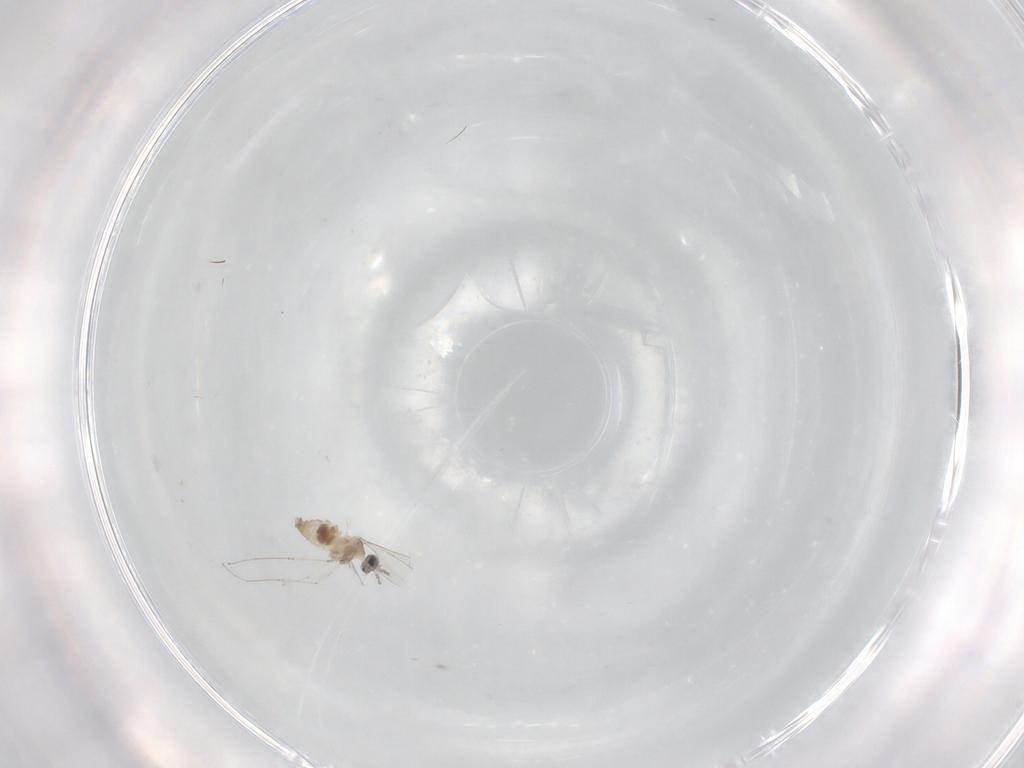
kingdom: Animalia
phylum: Arthropoda
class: Insecta
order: Diptera
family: Cecidomyiidae
